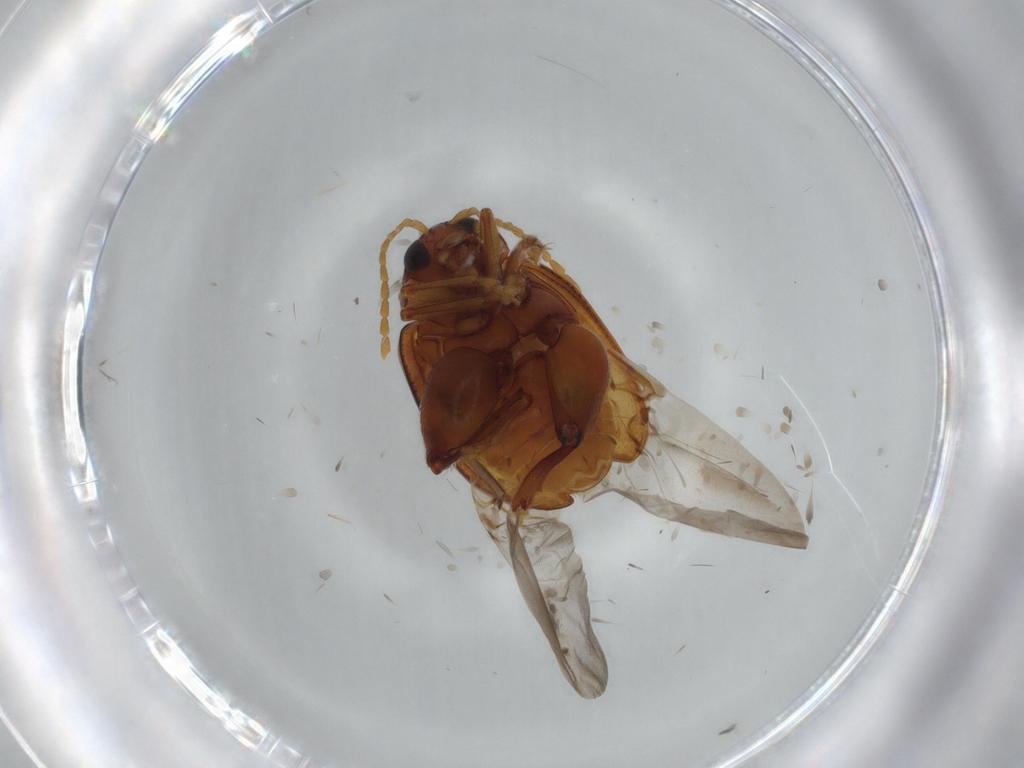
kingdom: Animalia
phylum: Arthropoda
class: Insecta
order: Coleoptera
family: Chrysomelidae
